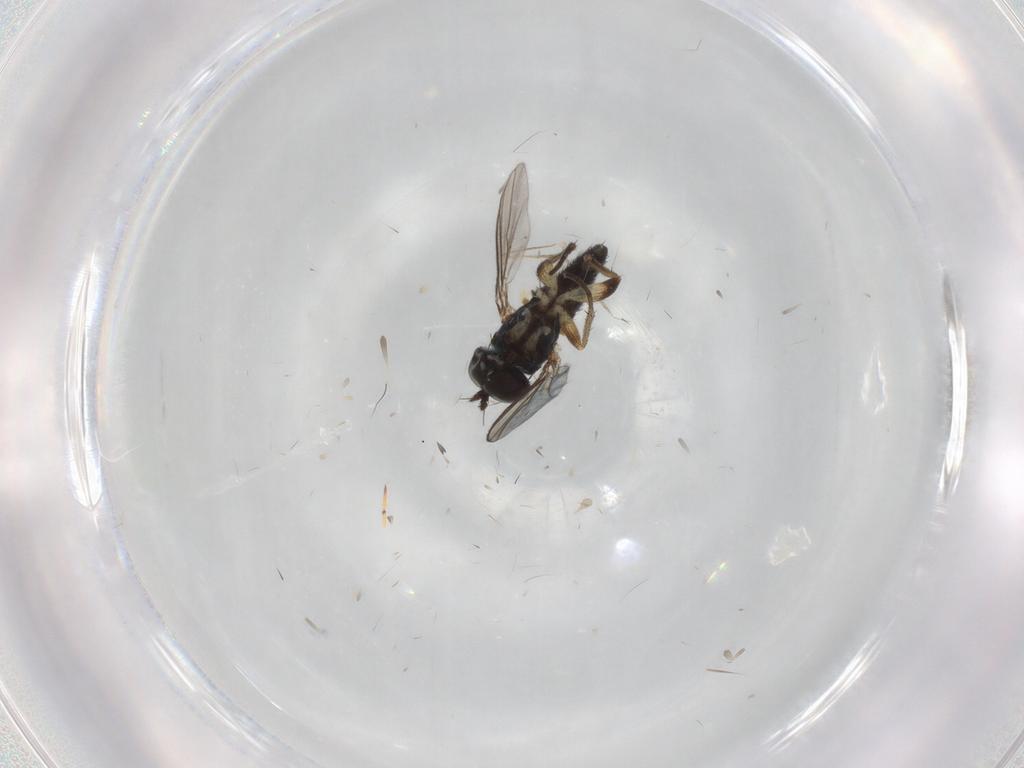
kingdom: Animalia
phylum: Arthropoda
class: Insecta
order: Diptera
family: Cecidomyiidae
